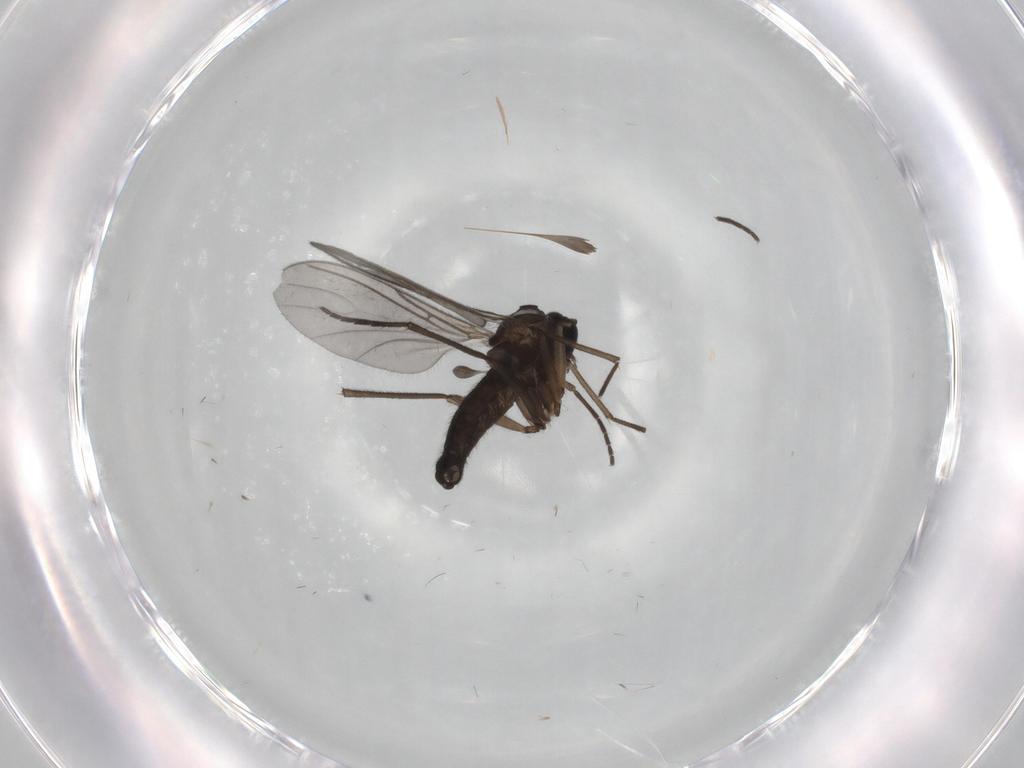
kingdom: Animalia
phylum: Arthropoda
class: Insecta
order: Diptera
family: Sciaridae
